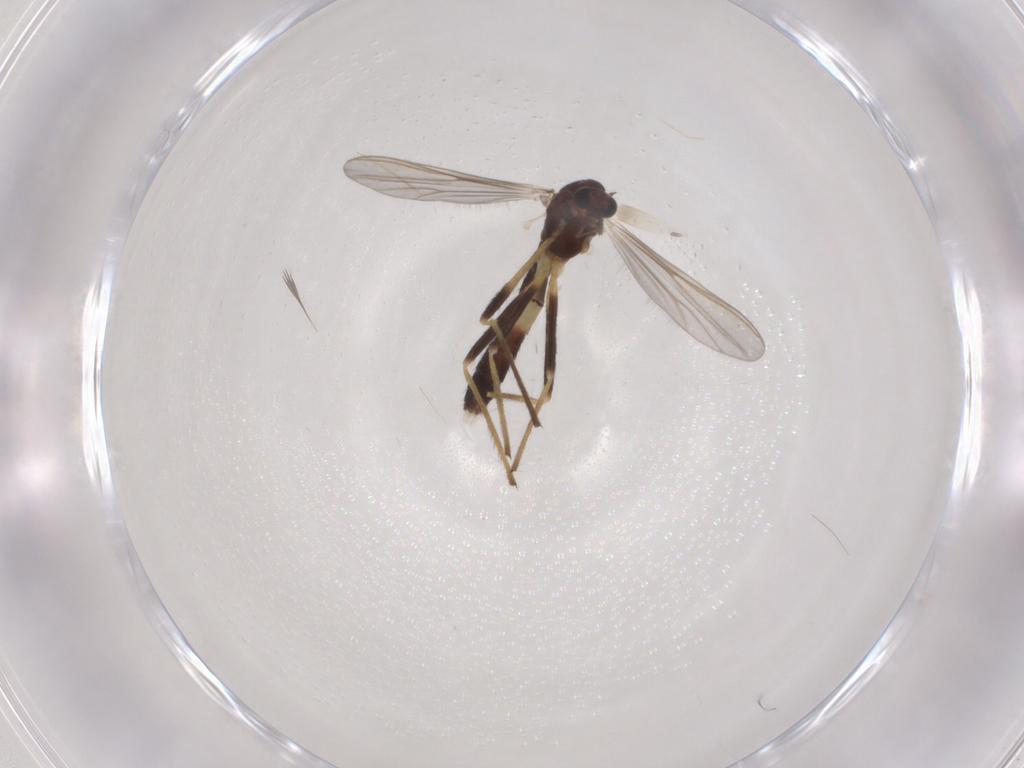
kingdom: Animalia
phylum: Arthropoda
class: Insecta
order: Diptera
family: Chironomidae
